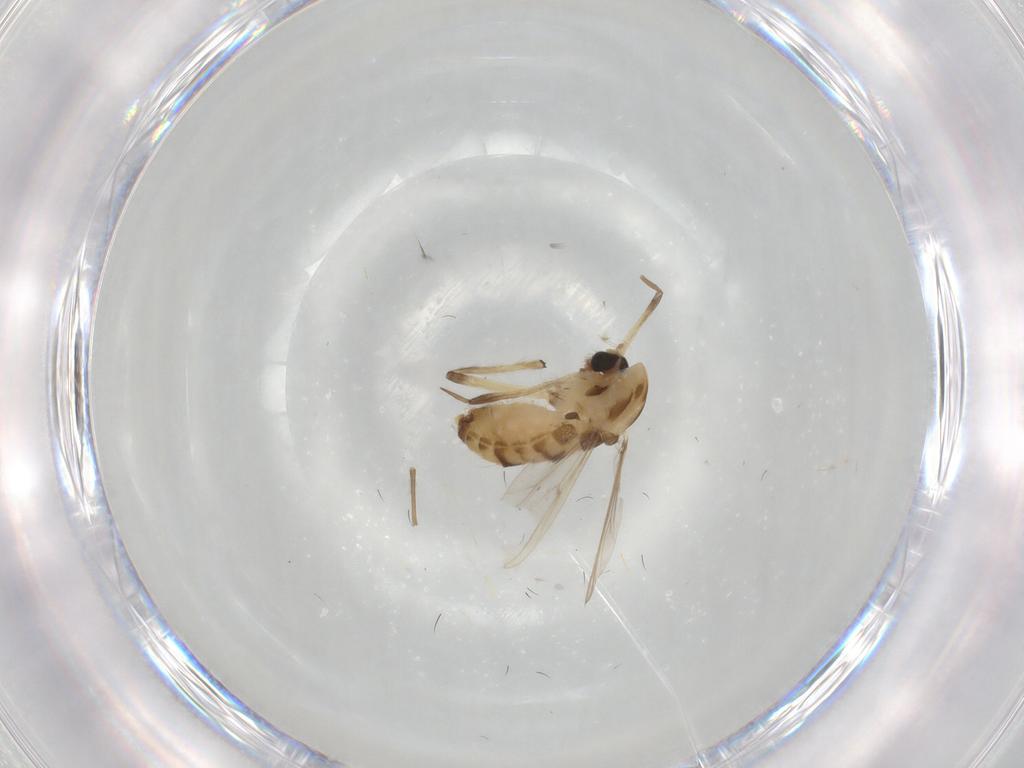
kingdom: Animalia
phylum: Arthropoda
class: Insecta
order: Diptera
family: Chironomidae
